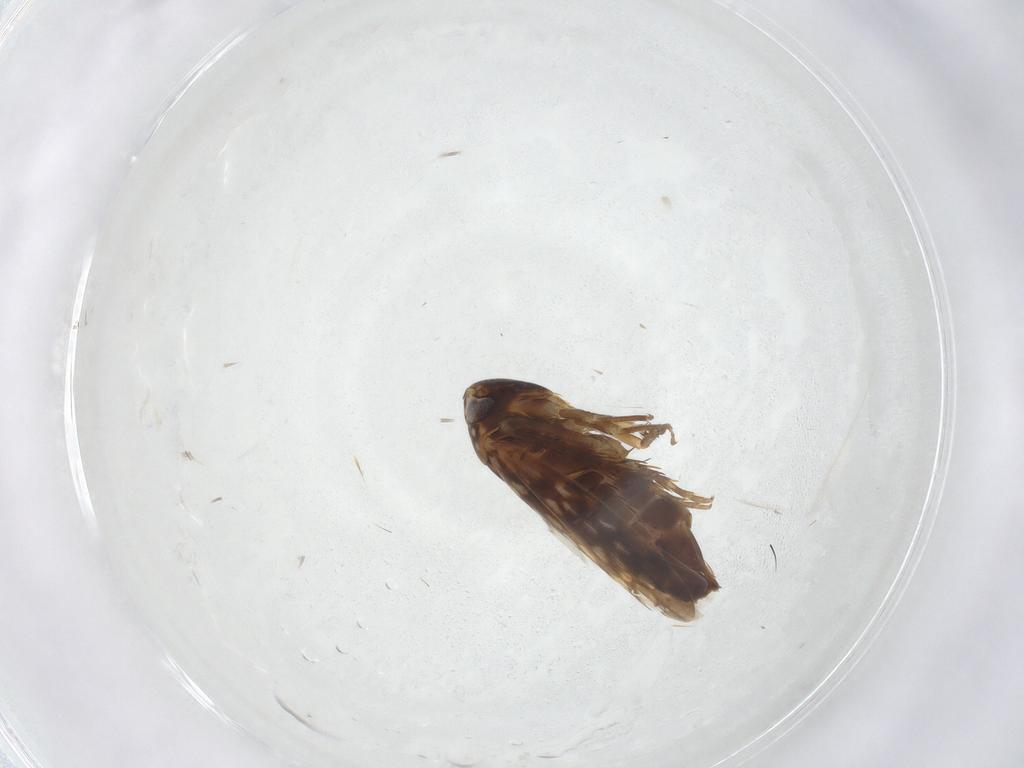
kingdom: Animalia
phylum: Arthropoda
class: Insecta
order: Hemiptera
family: Cicadellidae
